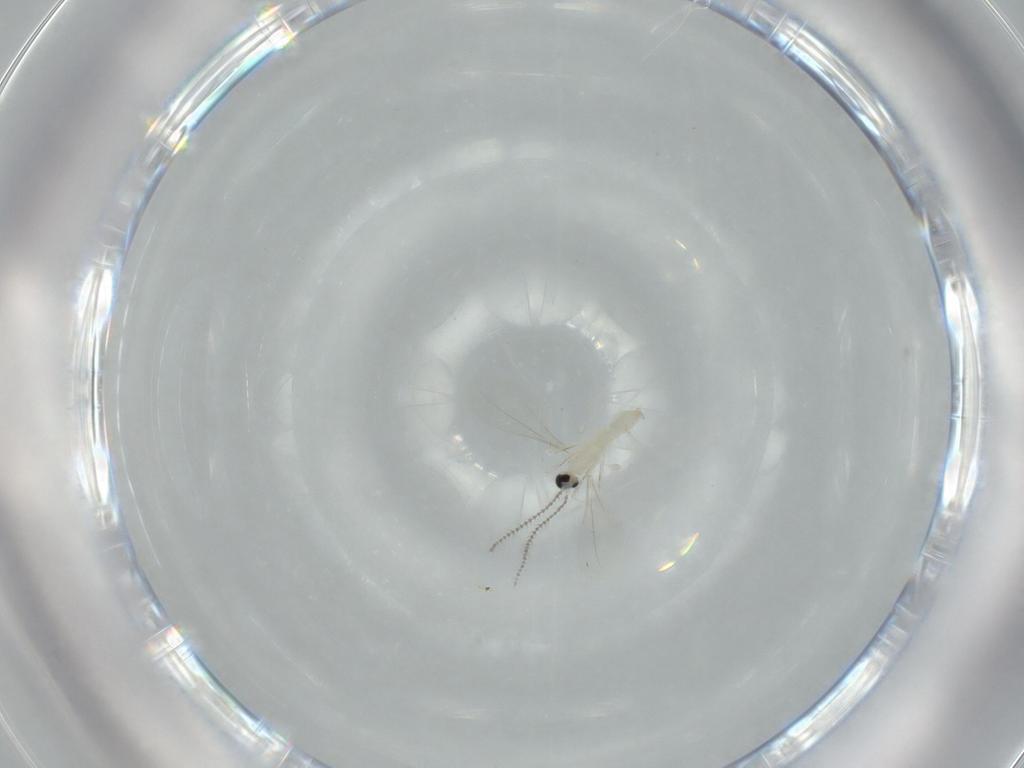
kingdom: Animalia
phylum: Arthropoda
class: Insecta
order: Diptera
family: Cecidomyiidae
